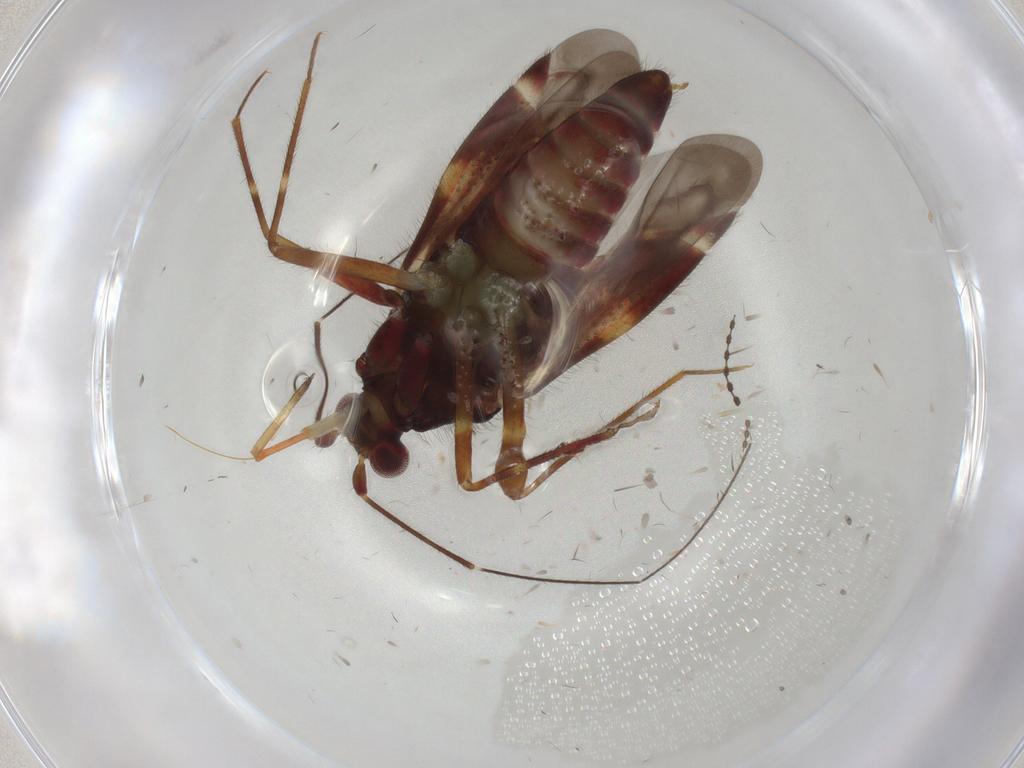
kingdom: Animalia
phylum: Arthropoda
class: Insecta
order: Hemiptera
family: Miridae
